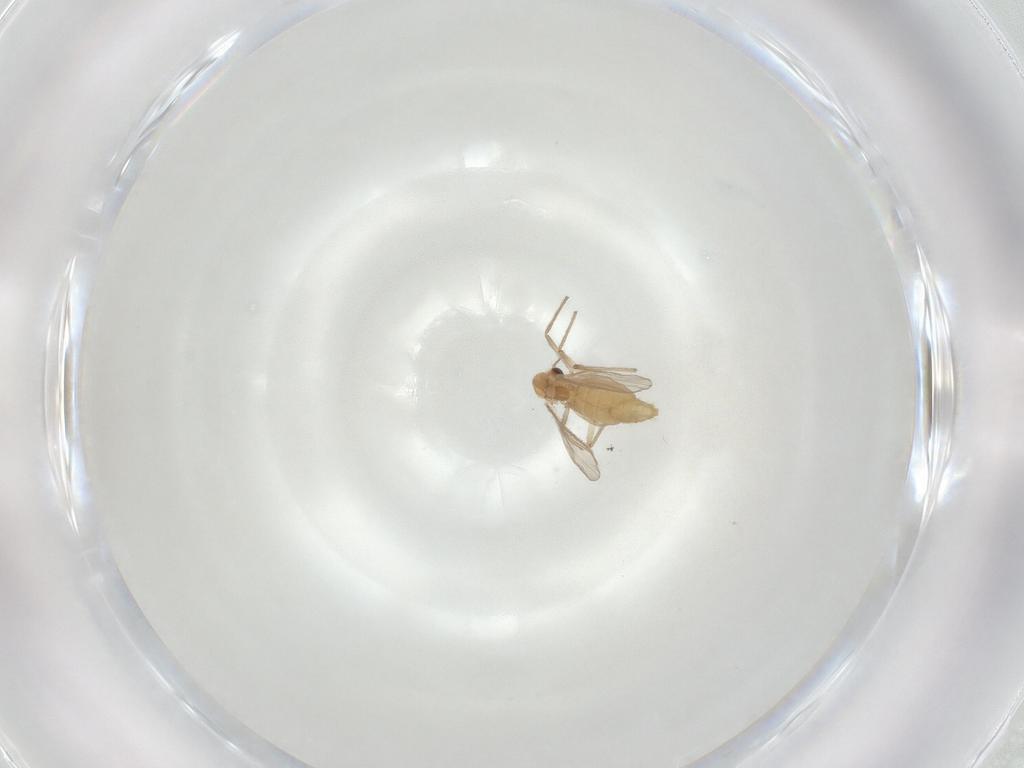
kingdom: Animalia
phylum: Arthropoda
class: Insecta
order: Diptera
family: Chironomidae
